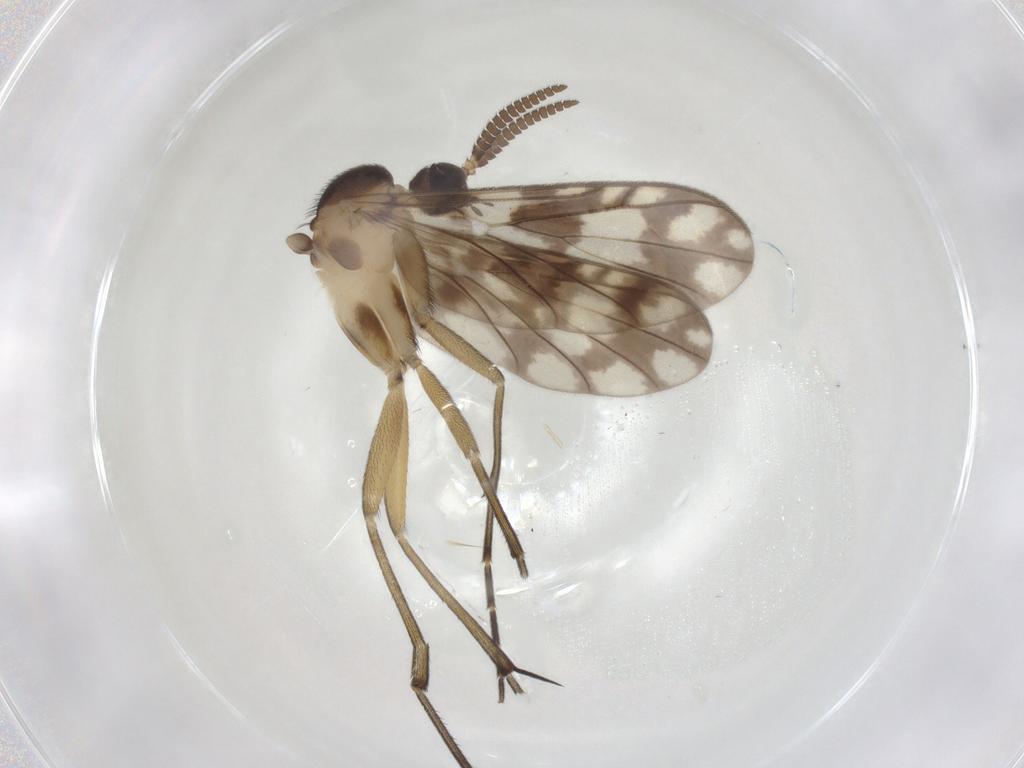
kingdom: Animalia
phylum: Arthropoda
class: Insecta
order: Diptera
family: Keroplatidae
